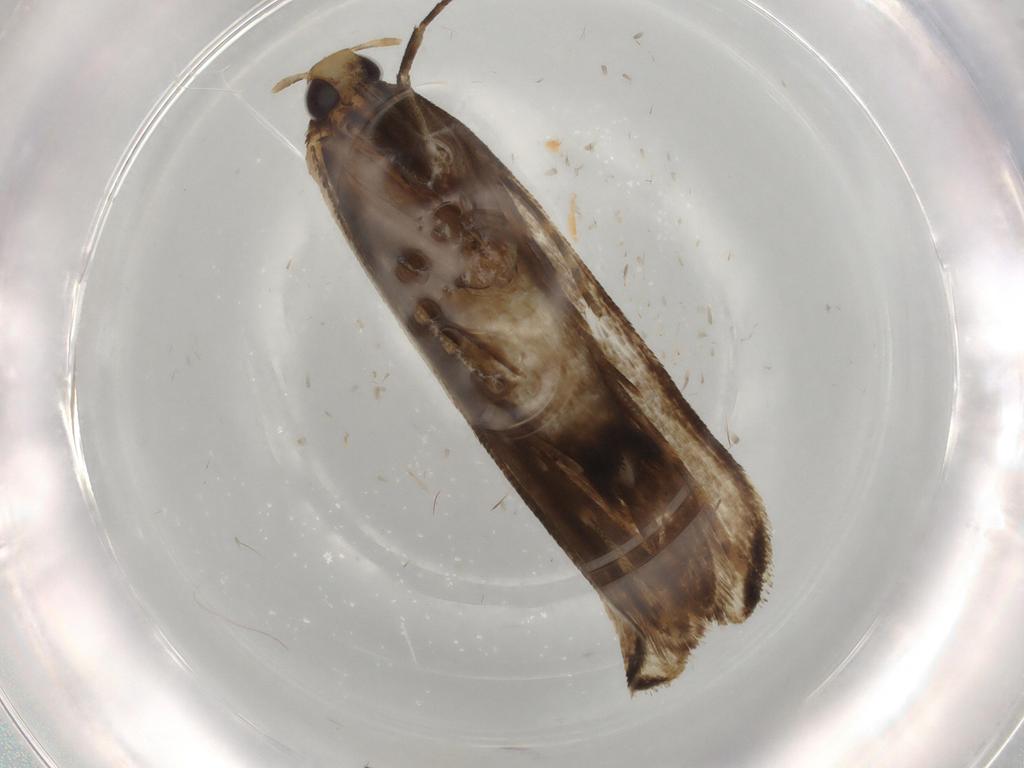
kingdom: Animalia
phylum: Arthropoda
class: Insecta
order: Lepidoptera
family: Gelechiidae
